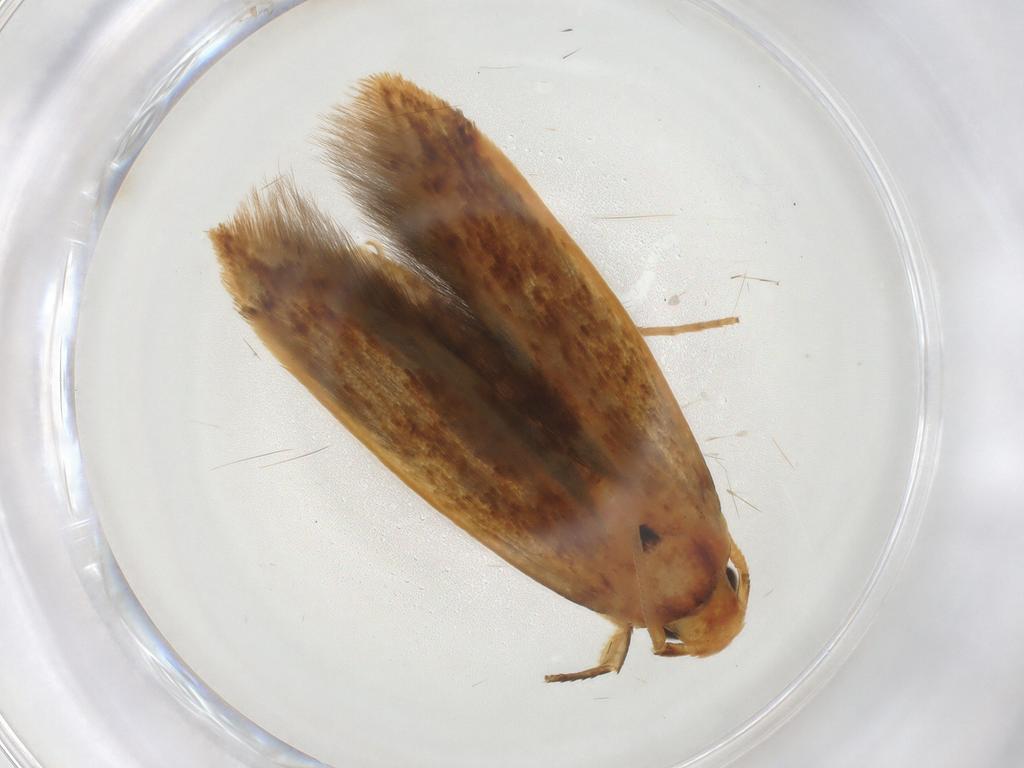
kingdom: Animalia
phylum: Arthropoda
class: Insecta
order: Lepidoptera
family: Tineidae
